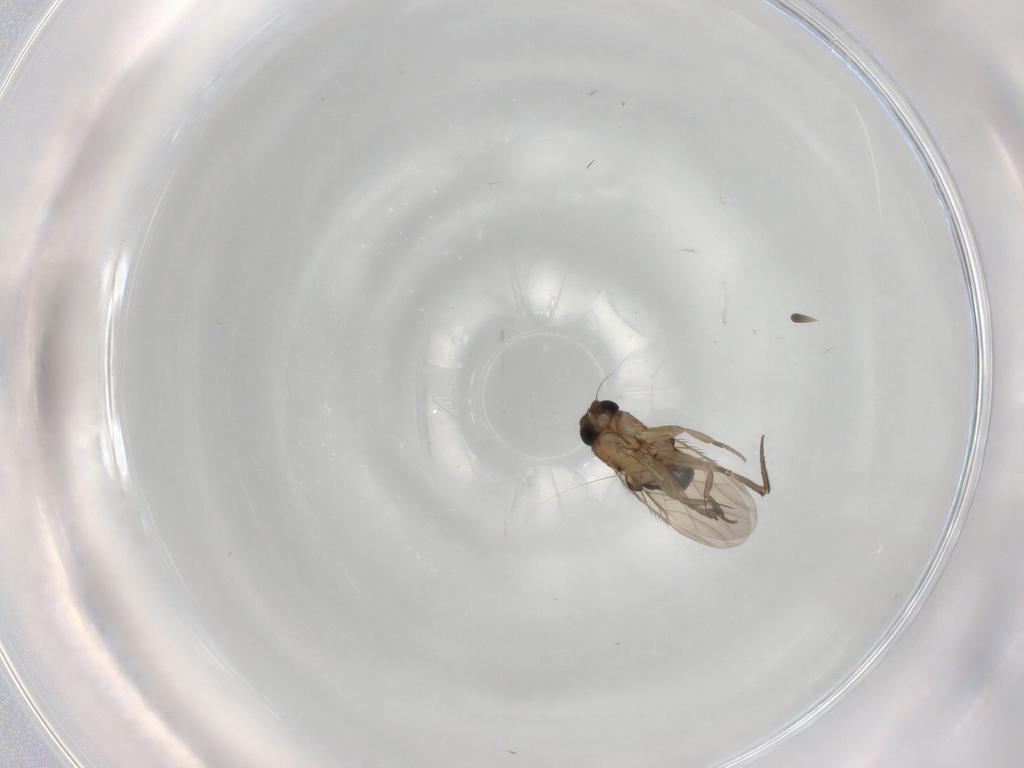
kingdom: Animalia
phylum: Arthropoda
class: Insecta
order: Diptera
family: Phoridae
